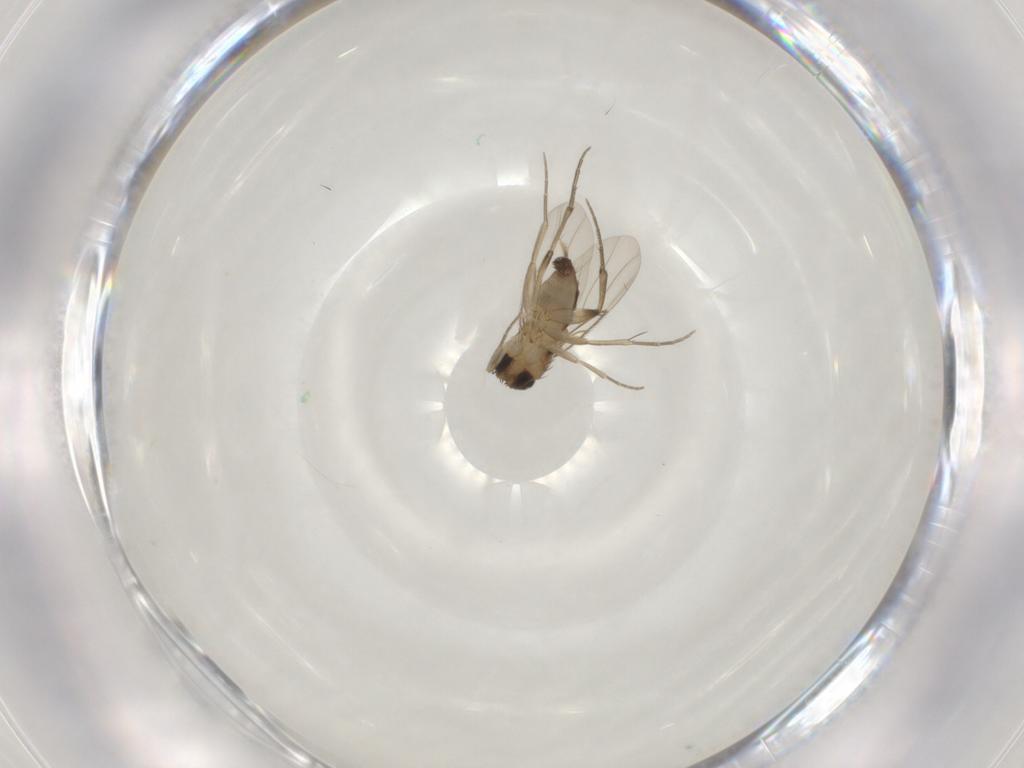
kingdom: Animalia
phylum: Arthropoda
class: Insecta
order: Diptera
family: Phoridae
